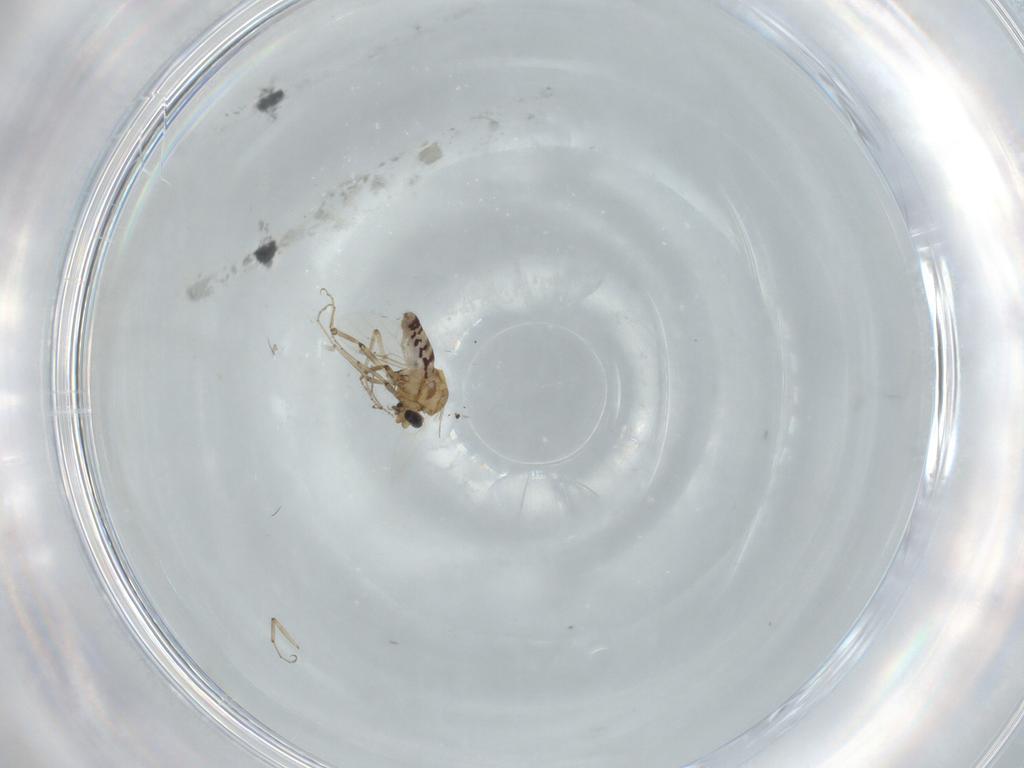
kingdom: Animalia
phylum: Arthropoda
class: Insecta
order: Diptera
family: Ceratopogonidae
